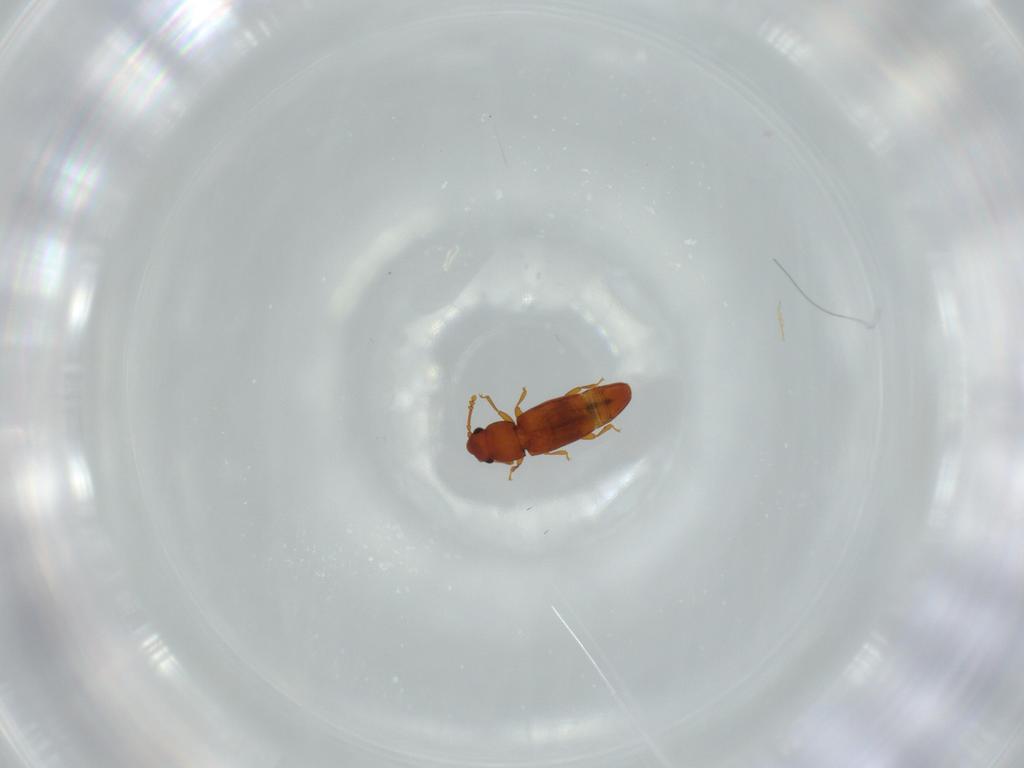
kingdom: Animalia
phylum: Arthropoda
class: Insecta
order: Coleoptera
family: Smicripidae
